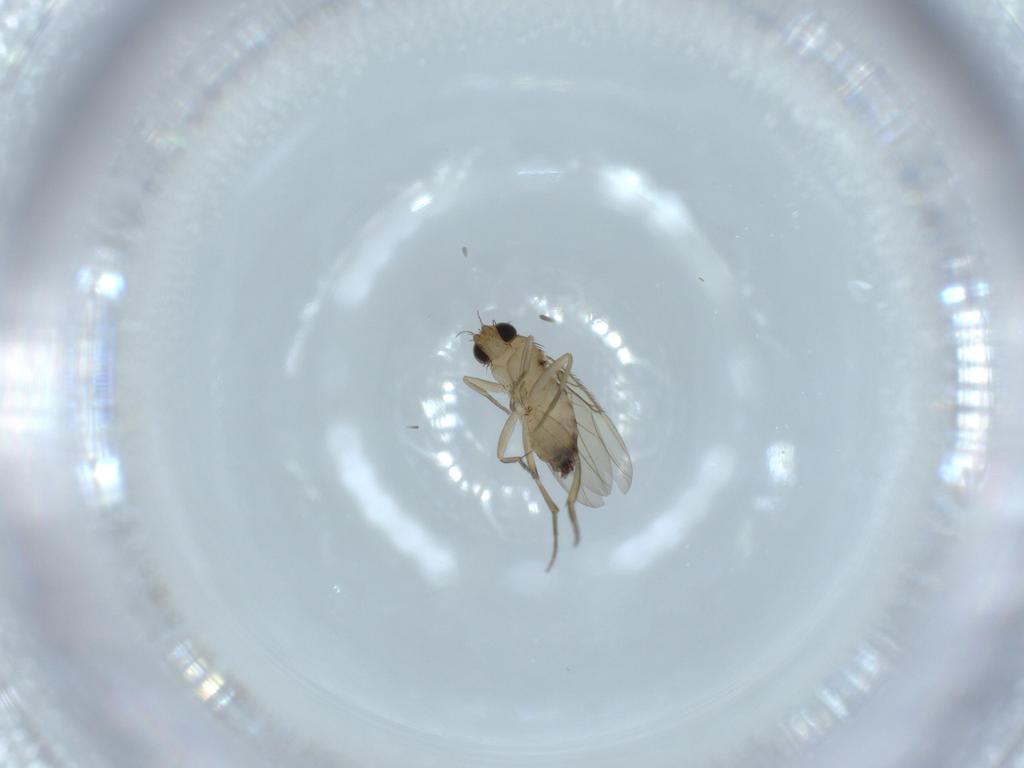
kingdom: Animalia
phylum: Arthropoda
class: Insecta
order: Diptera
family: Phoridae
